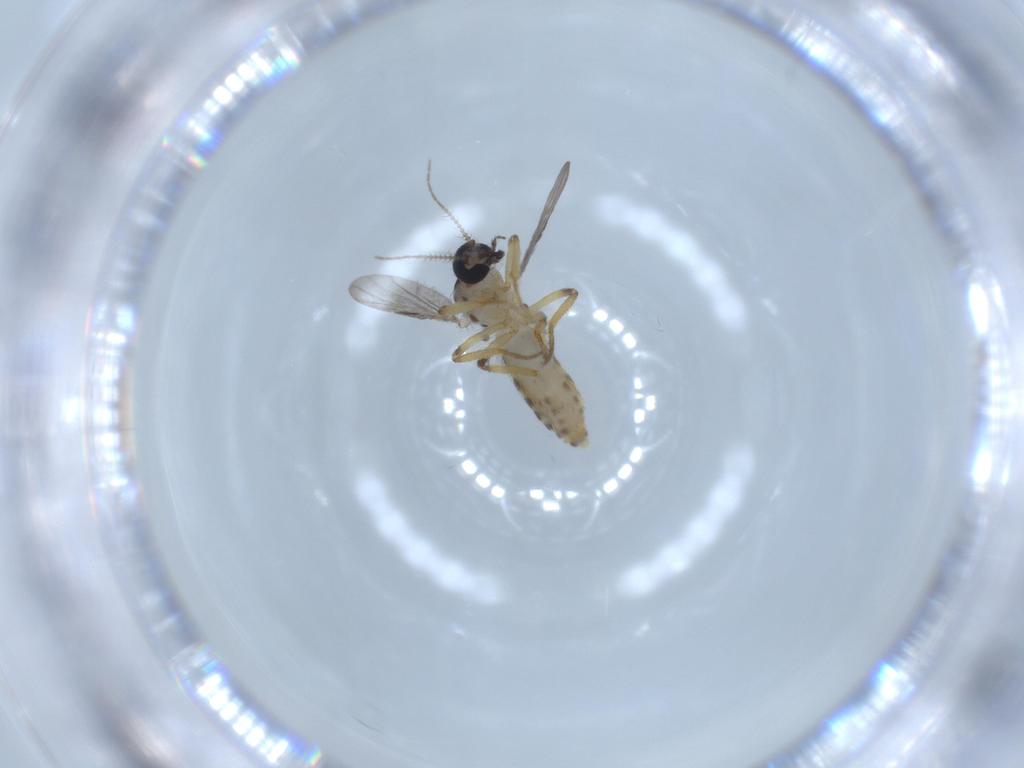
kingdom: Animalia
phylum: Arthropoda
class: Insecta
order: Diptera
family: Ceratopogonidae
